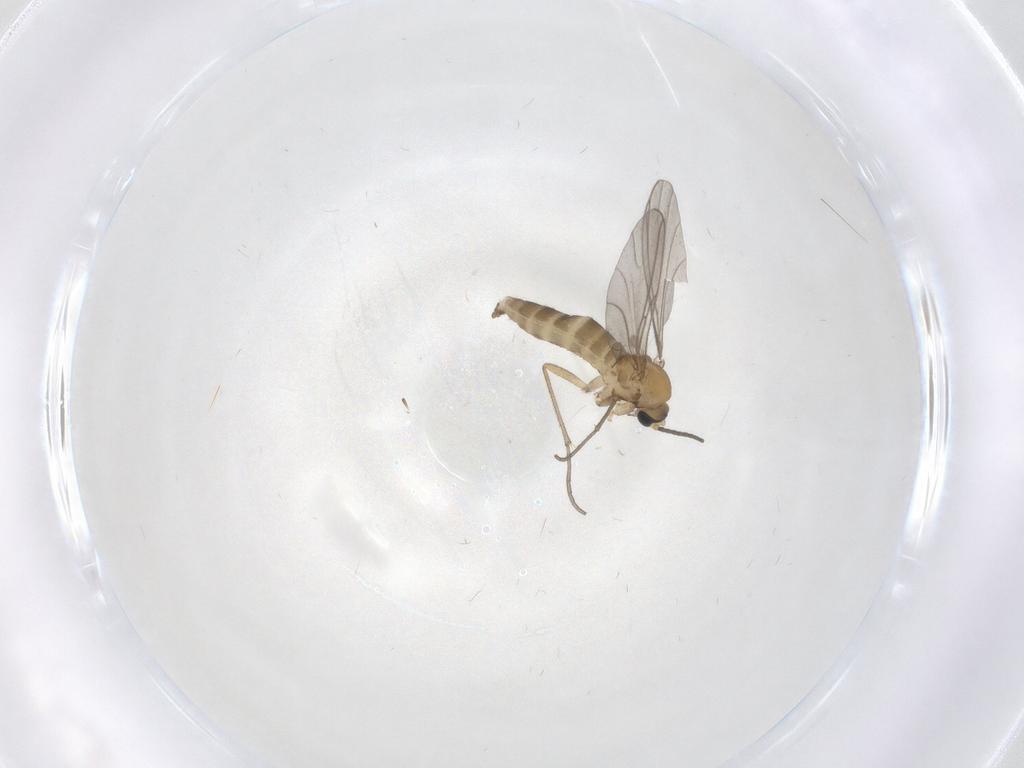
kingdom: Animalia
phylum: Arthropoda
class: Insecta
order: Diptera
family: Sciaridae
